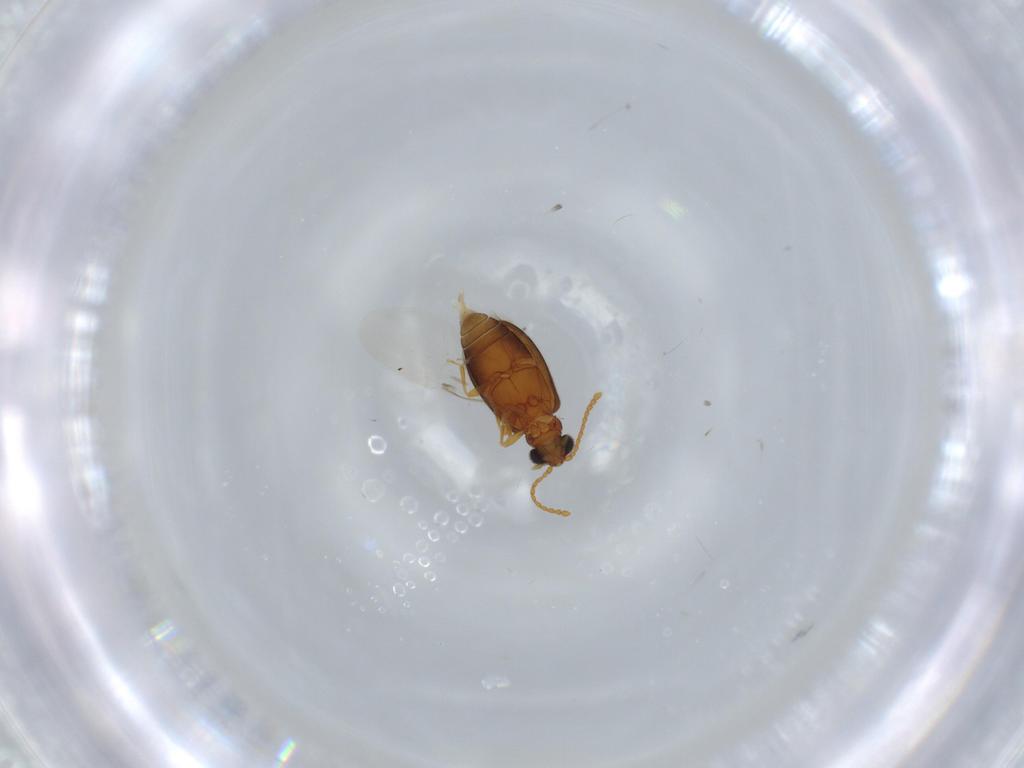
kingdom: Animalia
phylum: Arthropoda
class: Insecta
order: Coleoptera
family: Aderidae
